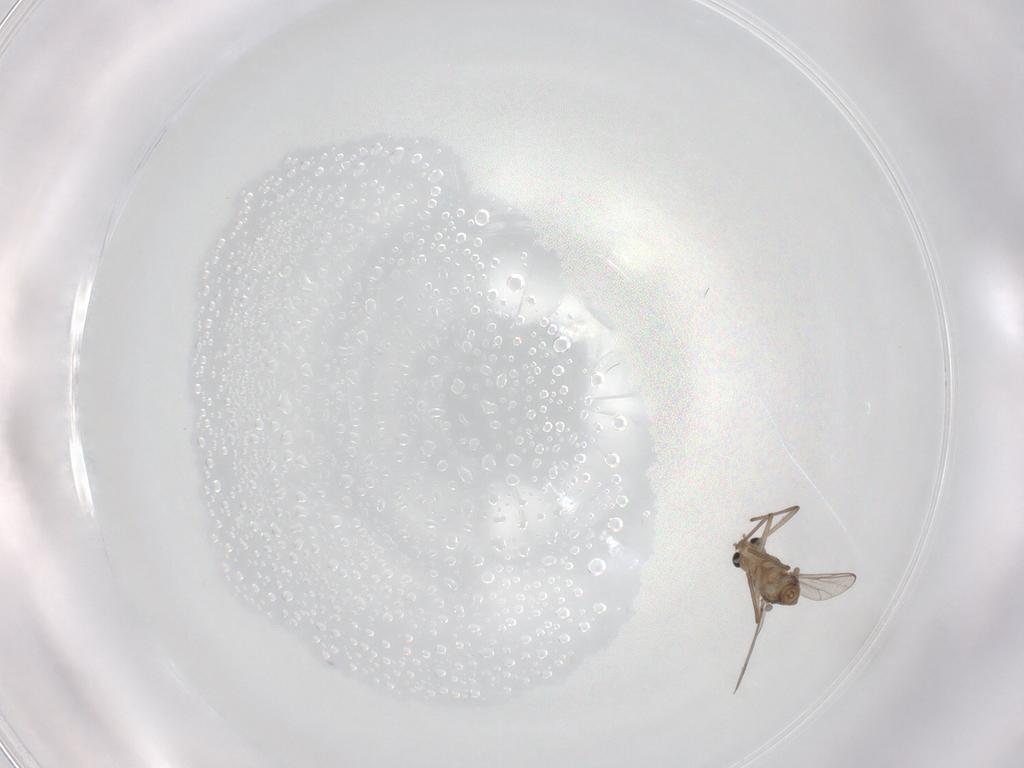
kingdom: Animalia
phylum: Arthropoda
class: Insecta
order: Diptera
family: Chironomidae
